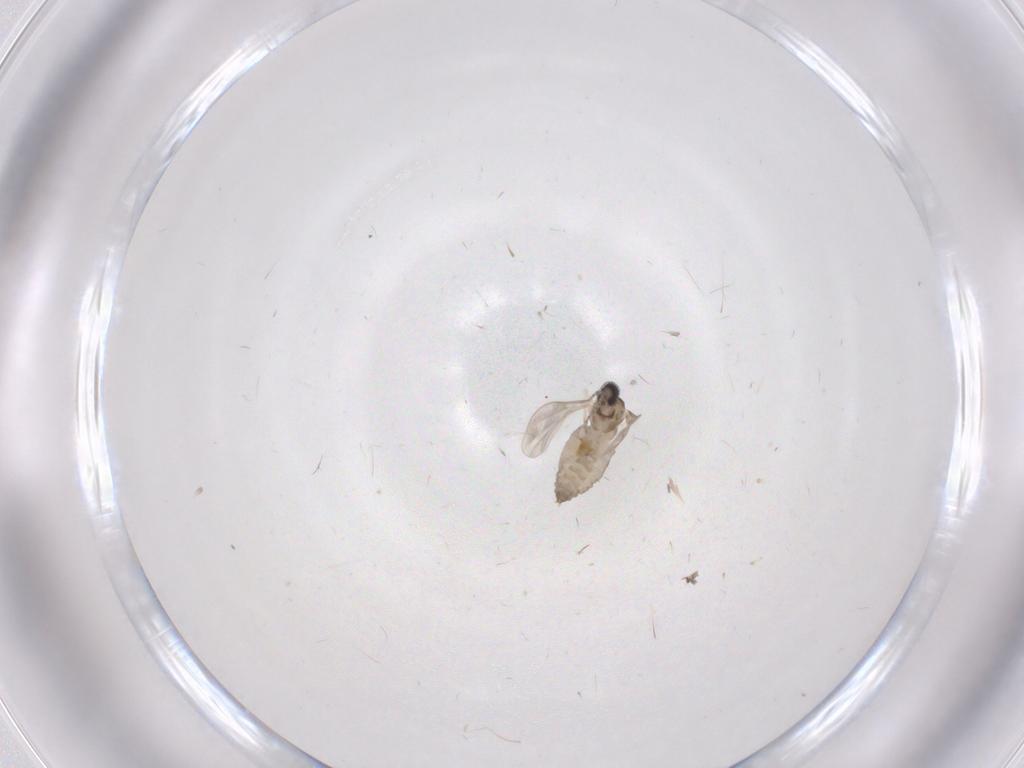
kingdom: Animalia
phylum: Arthropoda
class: Insecta
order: Diptera
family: Cecidomyiidae
